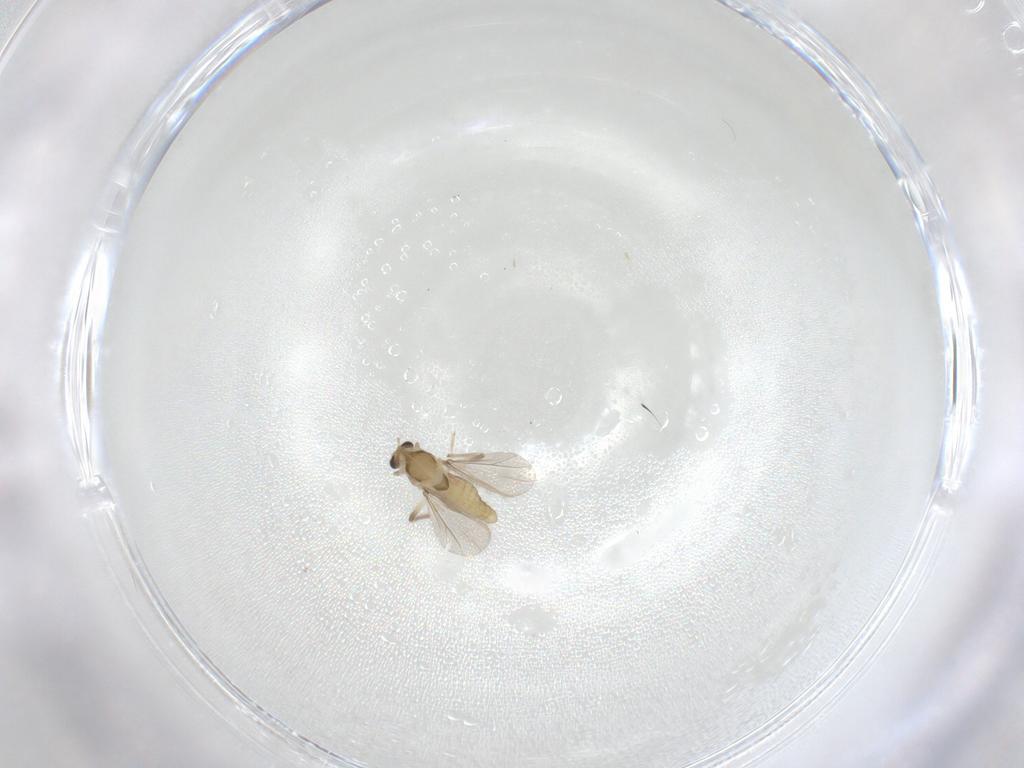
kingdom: Animalia
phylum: Arthropoda
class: Insecta
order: Diptera
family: Chironomidae
